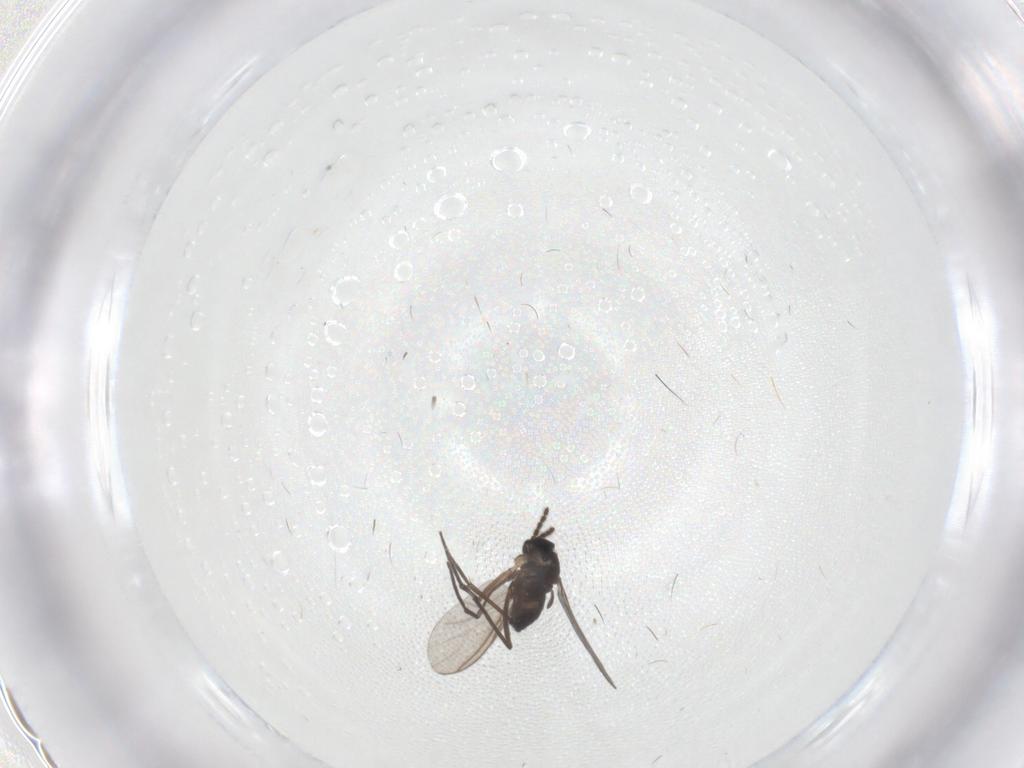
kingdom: Animalia
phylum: Arthropoda
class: Insecta
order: Diptera
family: Sciaridae
